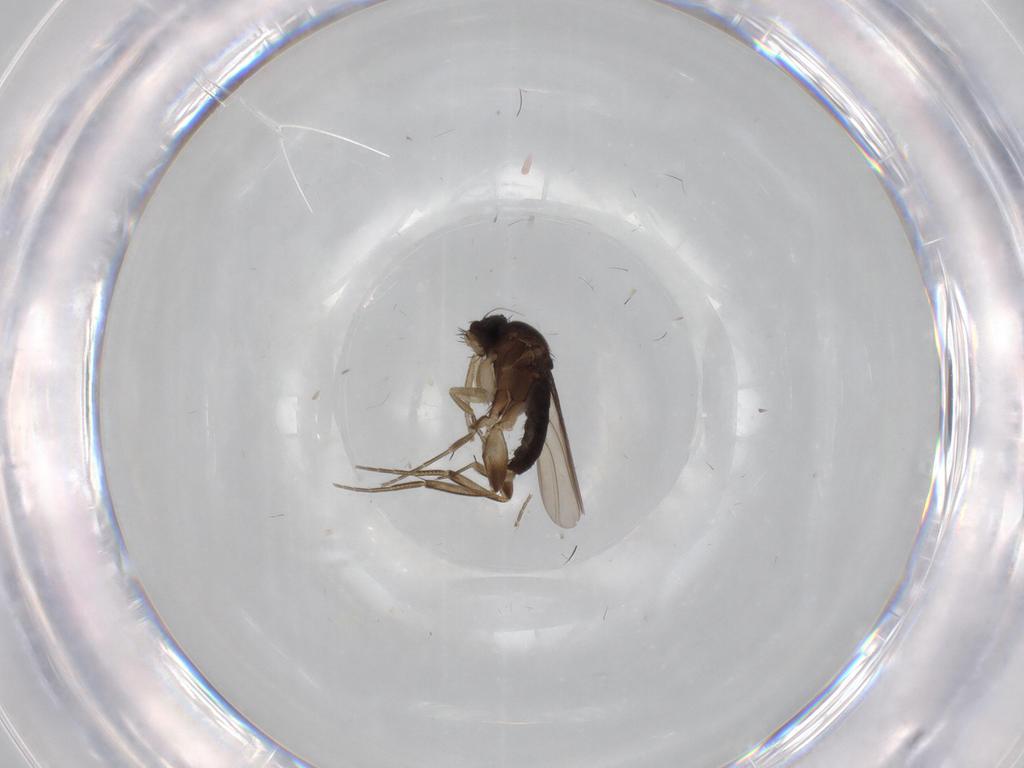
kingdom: Animalia
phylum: Arthropoda
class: Insecta
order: Diptera
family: Phoridae
